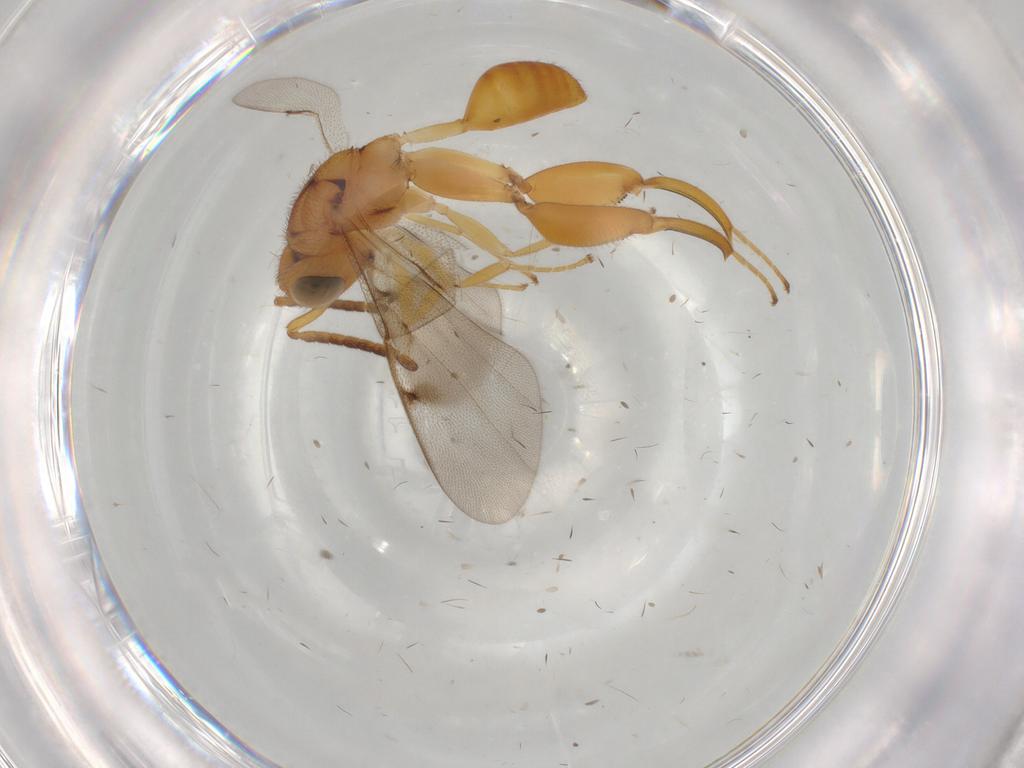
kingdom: Animalia
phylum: Arthropoda
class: Insecta
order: Hymenoptera
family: Chalcididae
